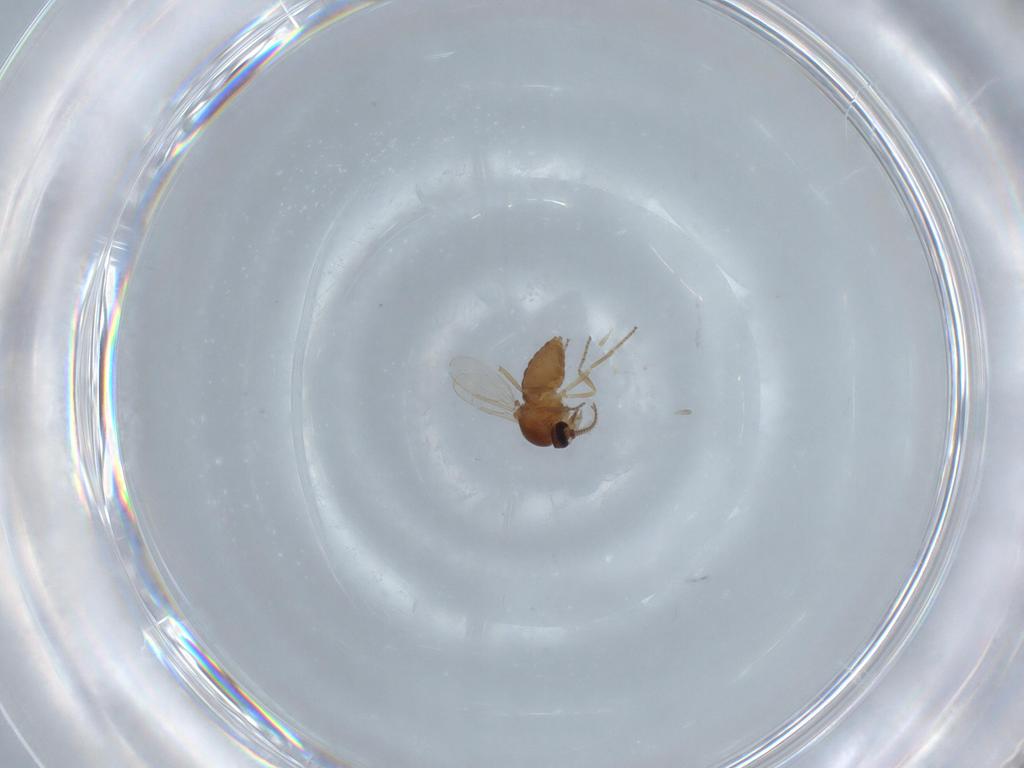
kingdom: Animalia
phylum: Arthropoda
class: Insecta
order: Diptera
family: Ceratopogonidae
